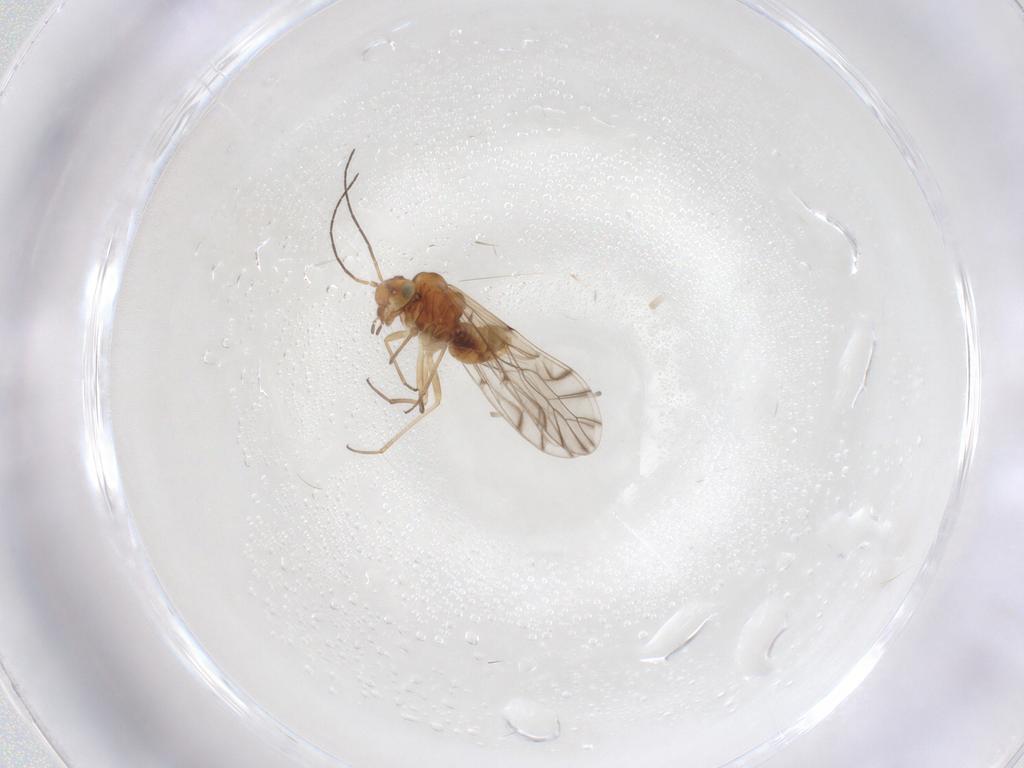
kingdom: Animalia
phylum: Arthropoda
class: Insecta
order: Psocodea
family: Lachesillidae
